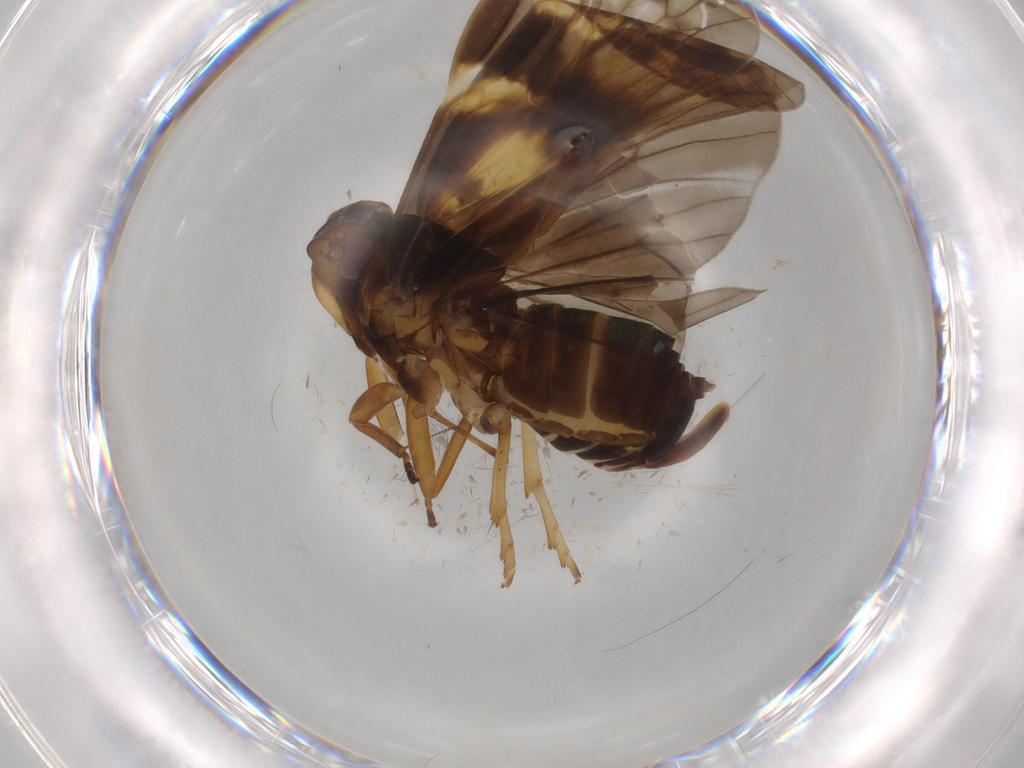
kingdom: Animalia
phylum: Arthropoda
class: Insecta
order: Hemiptera
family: Cixiidae
